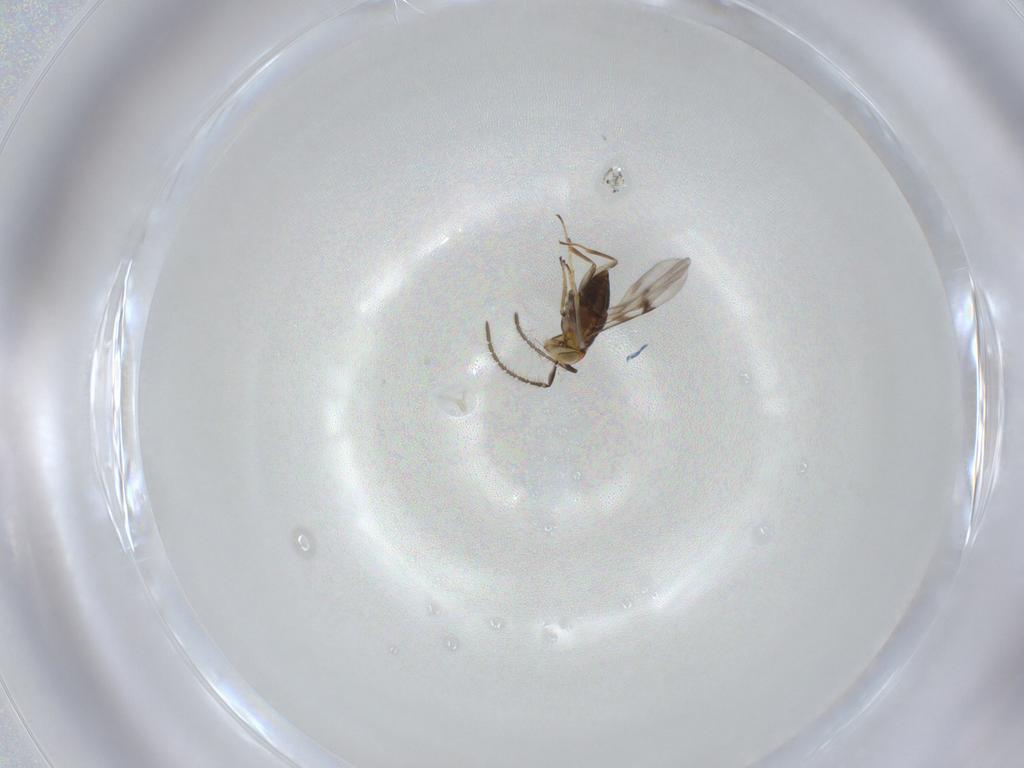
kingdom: Animalia
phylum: Arthropoda
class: Insecta
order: Hymenoptera
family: Encyrtidae
